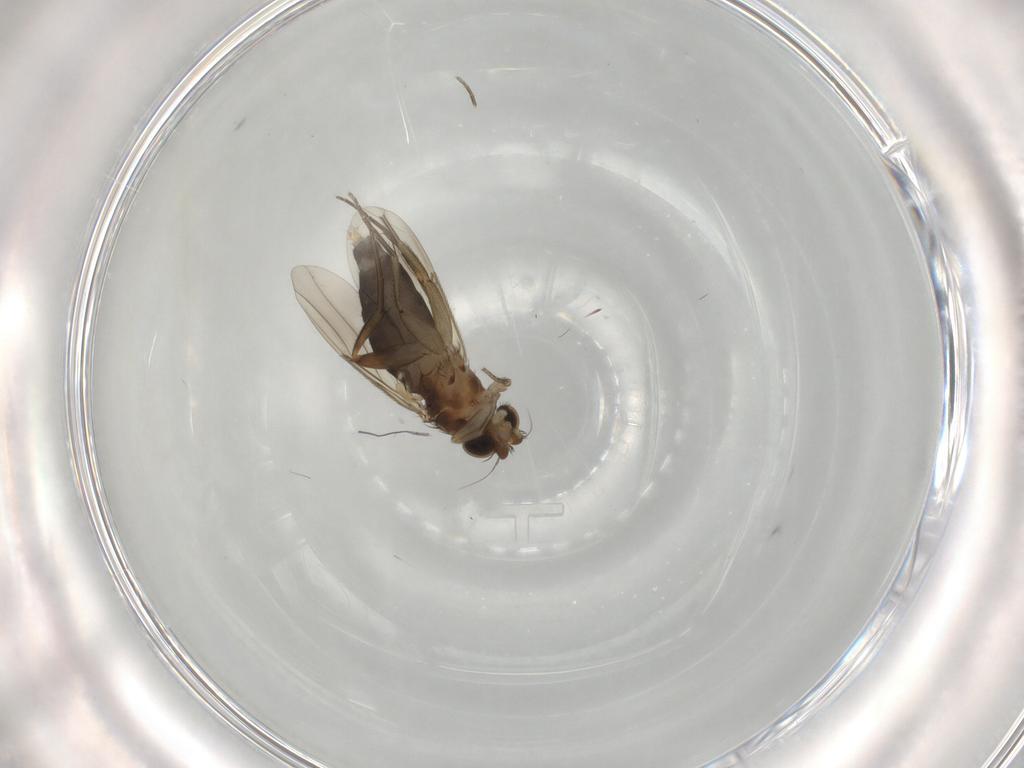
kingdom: Animalia
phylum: Arthropoda
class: Insecta
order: Diptera
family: Phoridae
